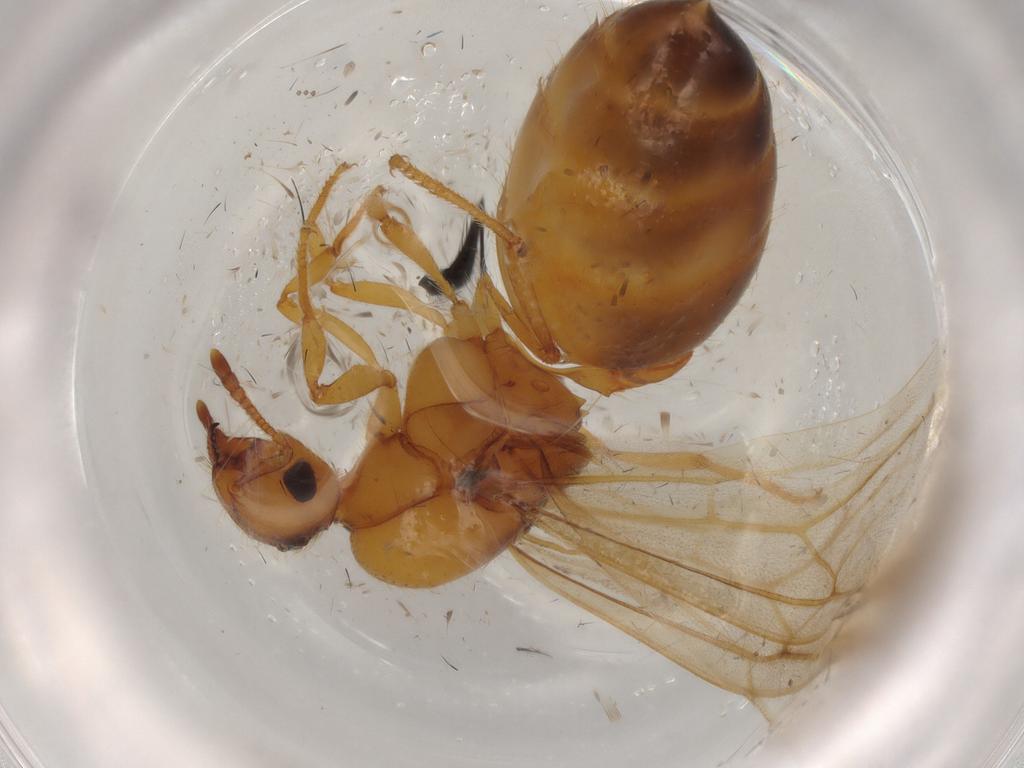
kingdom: Animalia
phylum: Arthropoda
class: Insecta
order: Hymenoptera
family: Formicidae
